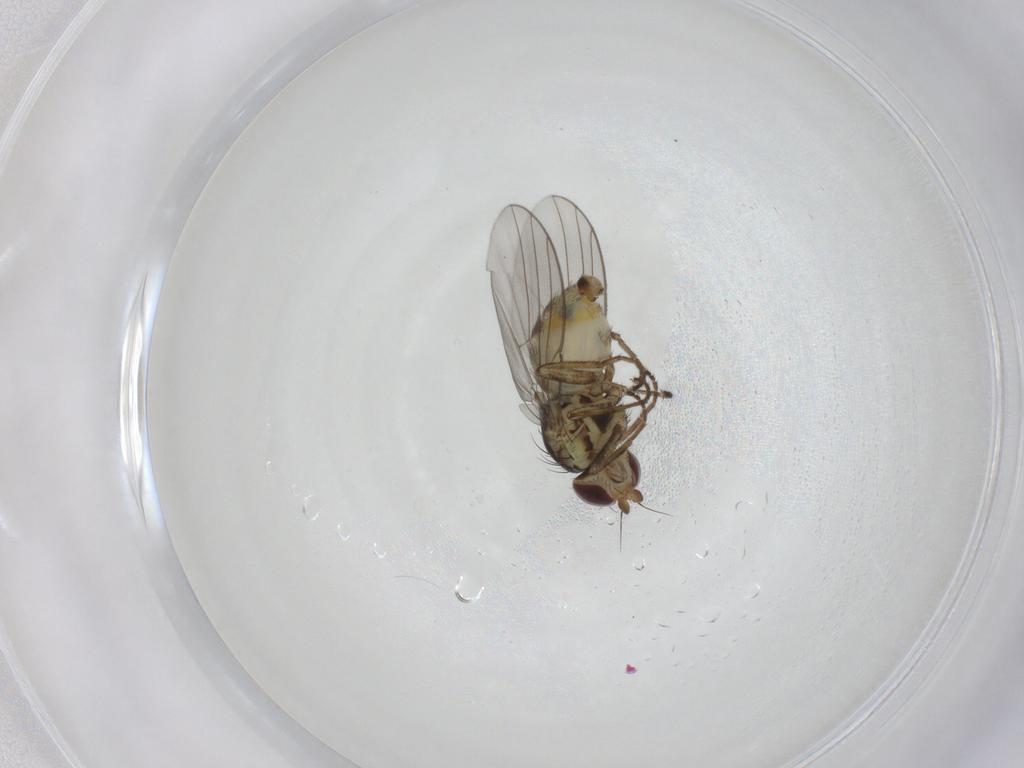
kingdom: Animalia
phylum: Arthropoda
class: Insecta
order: Diptera
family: Agromyzidae
